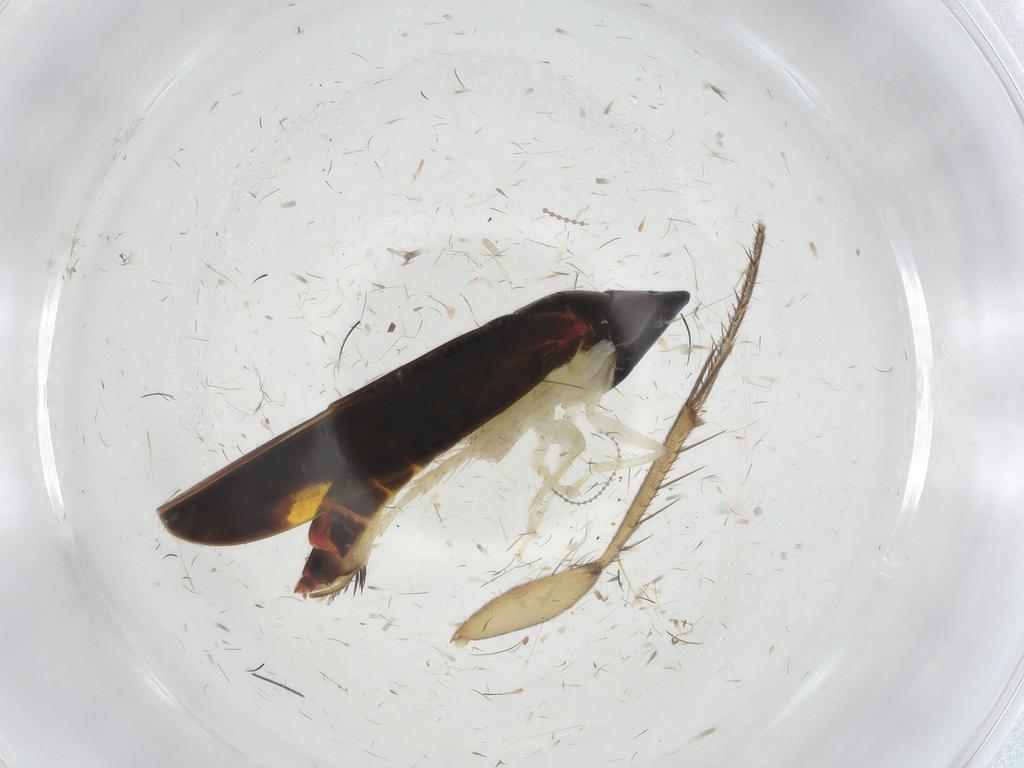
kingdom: Animalia
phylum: Arthropoda
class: Insecta
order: Hemiptera
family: Cicadellidae
